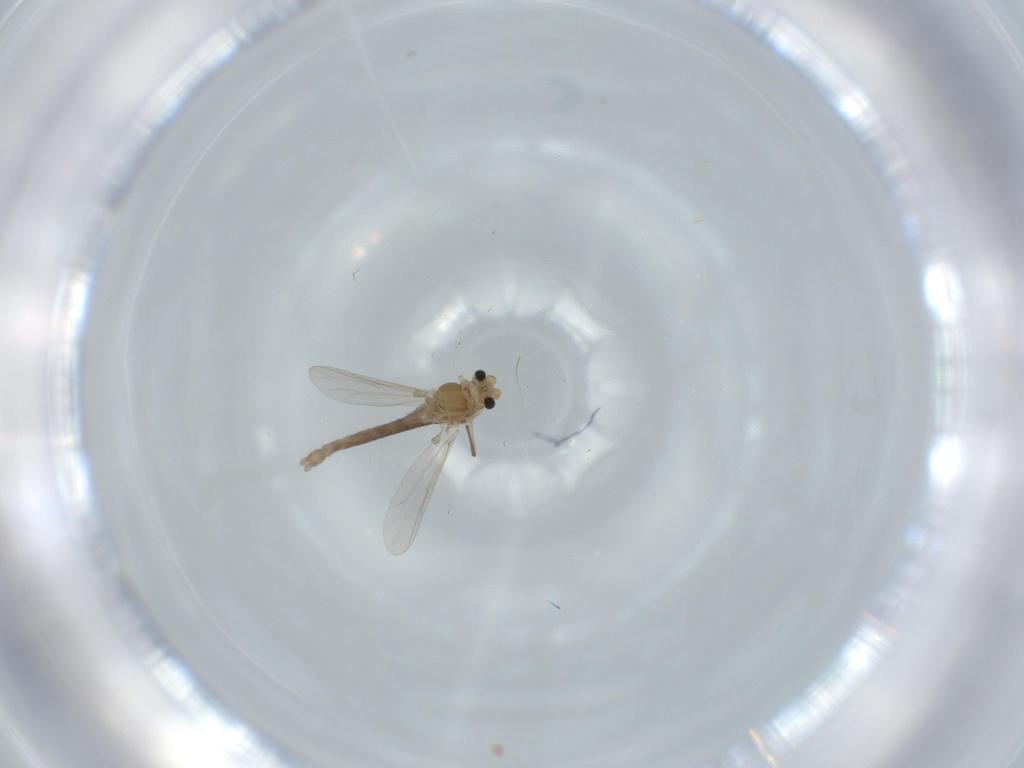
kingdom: Animalia
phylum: Arthropoda
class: Insecta
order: Diptera
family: Chironomidae
